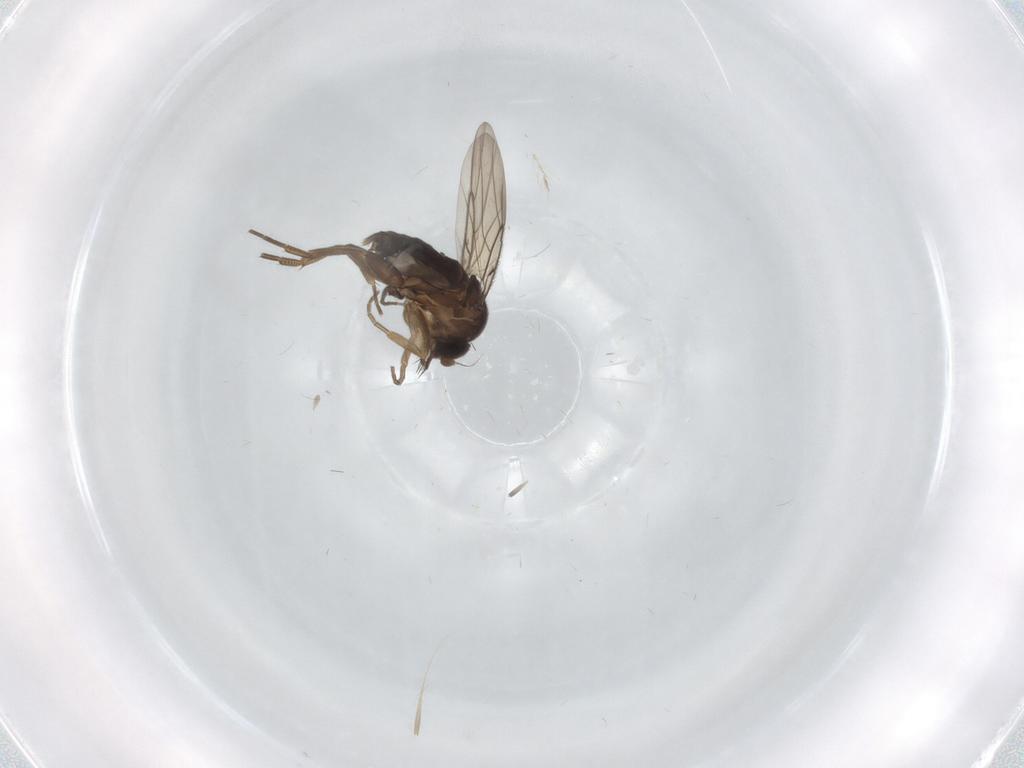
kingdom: Animalia
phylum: Arthropoda
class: Insecta
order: Diptera
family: Phoridae
